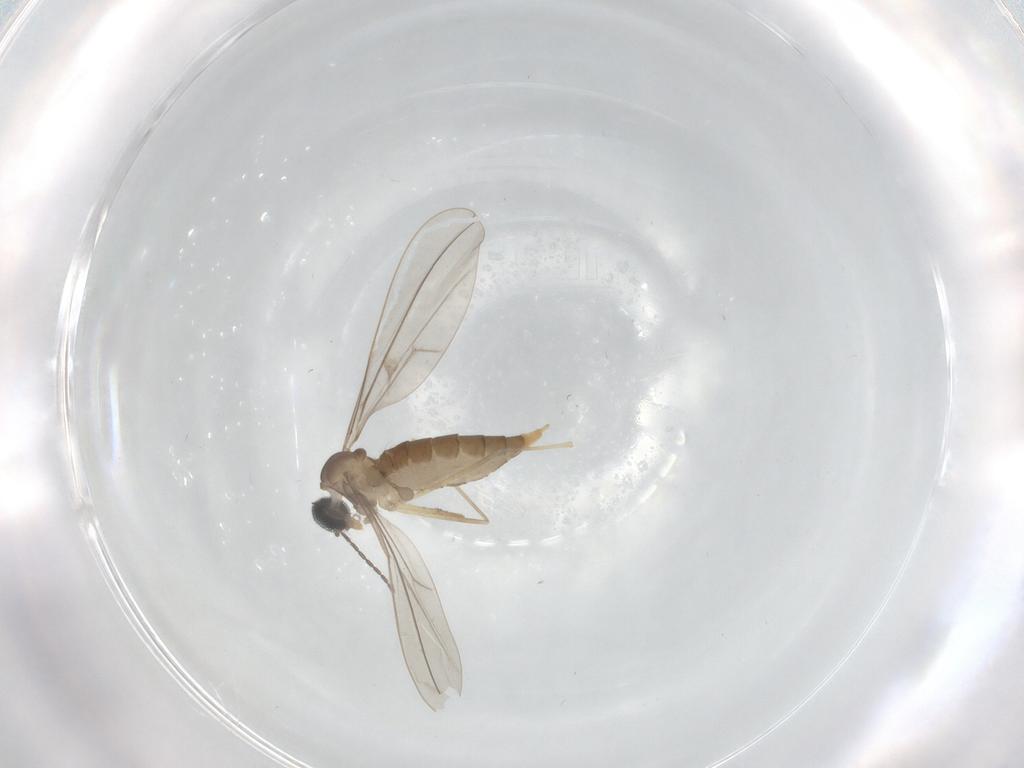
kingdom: Animalia
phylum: Arthropoda
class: Insecta
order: Diptera
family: Cecidomyiidae
